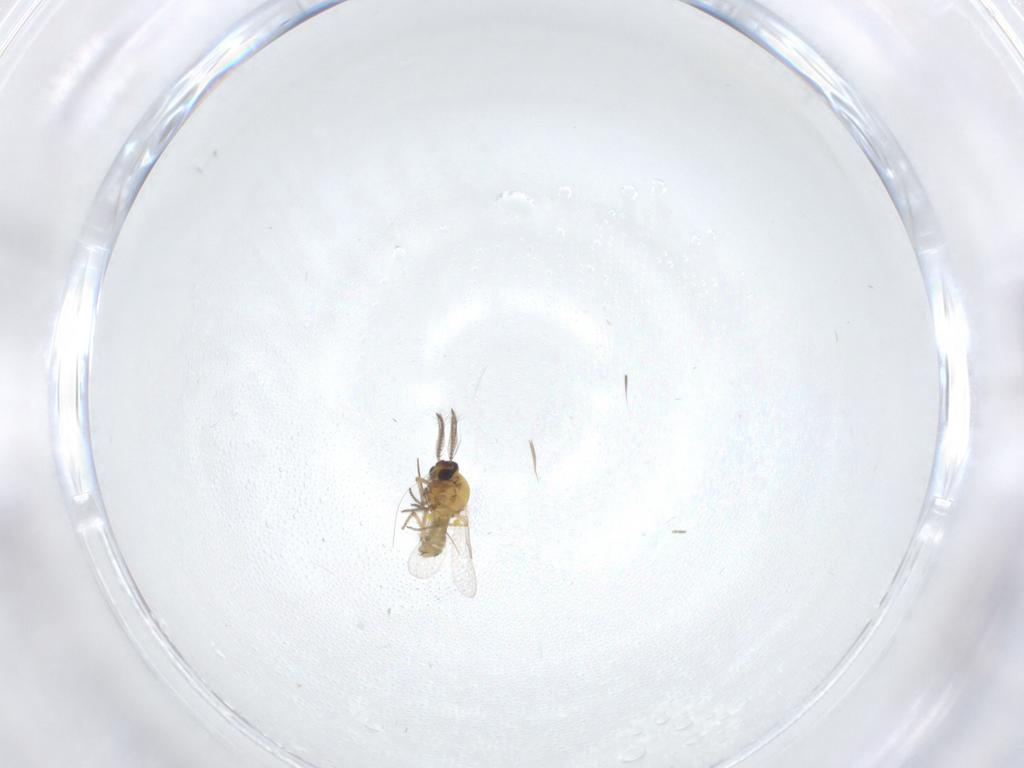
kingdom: Animalia
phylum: Arthropoda
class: Insecta
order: Diptera
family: Ceratopogonidae
